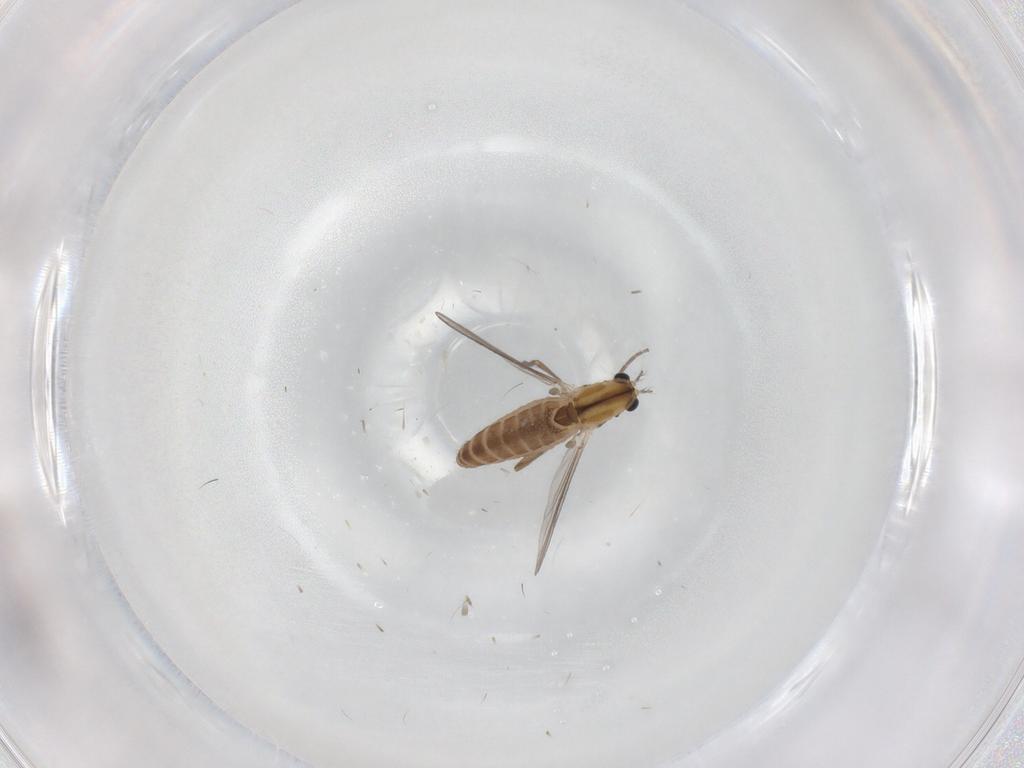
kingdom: Animalia
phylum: Arthropoda
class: Insecta
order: Diptera
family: Chironomidae
